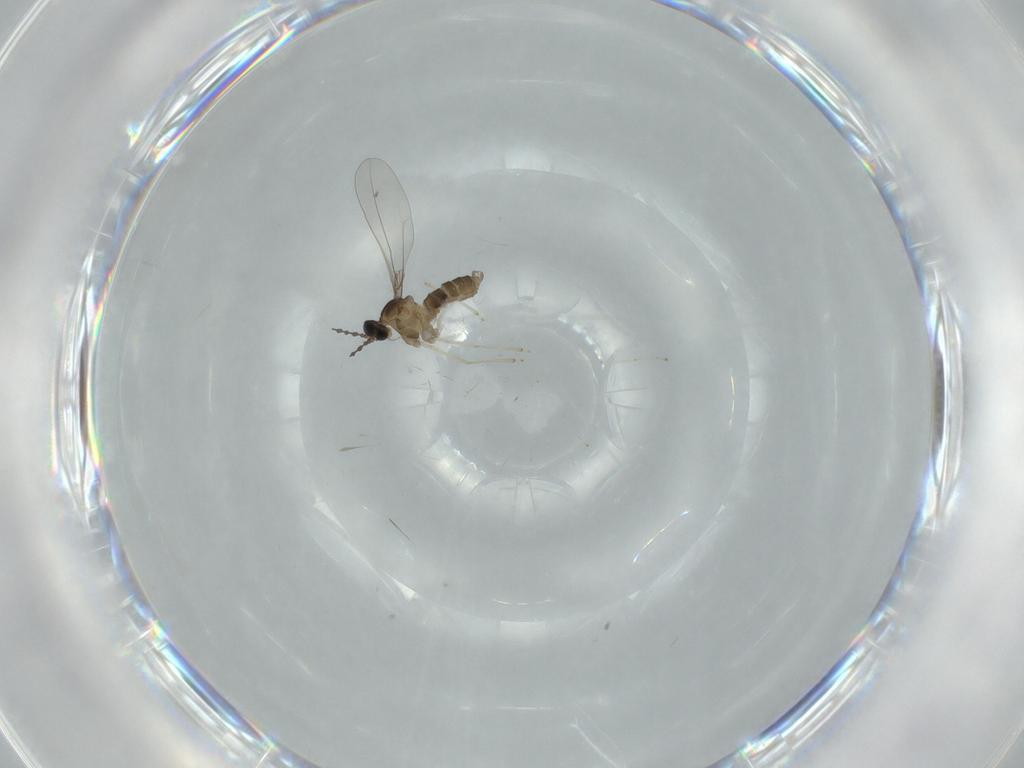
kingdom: Animalia
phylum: Arthropoda
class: Insecta
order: Diptera
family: Cecidomyiidae
